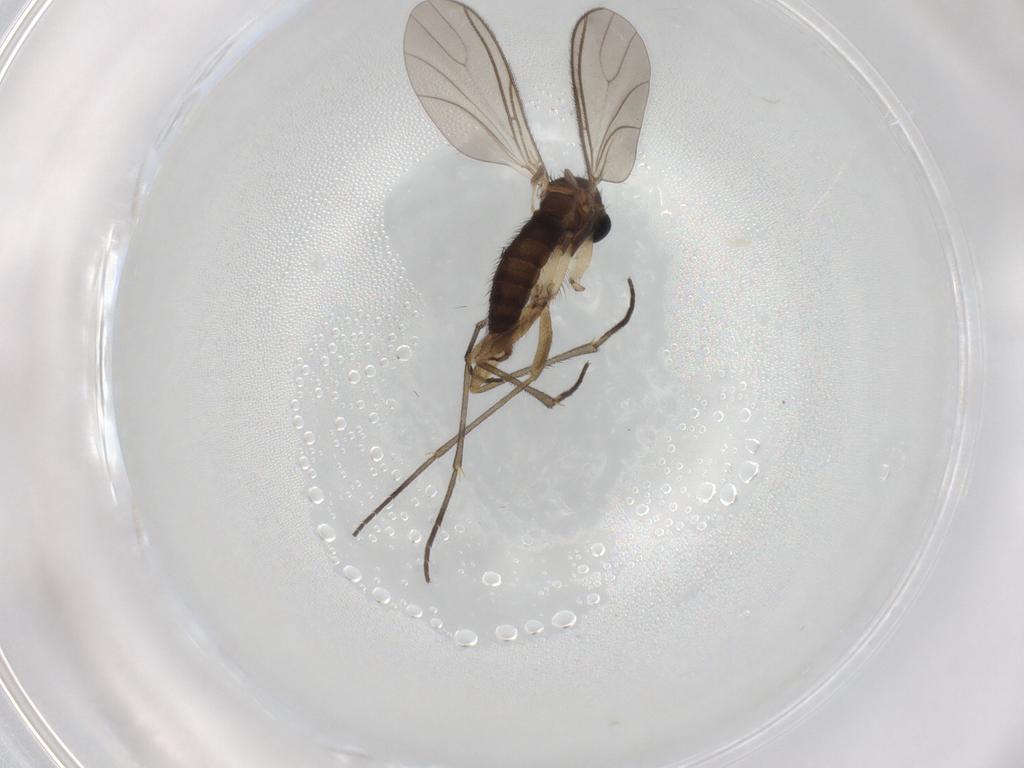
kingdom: Animalia
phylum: Arthropoda
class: Insecta
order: Diptera
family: Sciaridae
